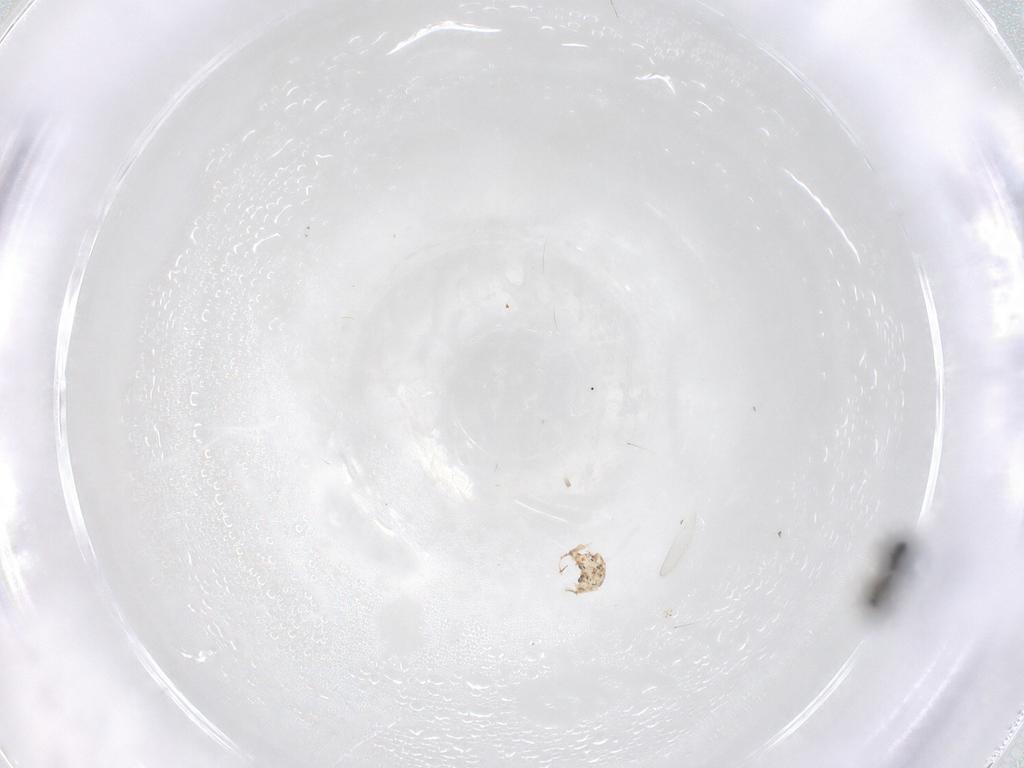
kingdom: Animalia
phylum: Arthropoda
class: Insecta
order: Hymenoptera
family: Scelionidae
